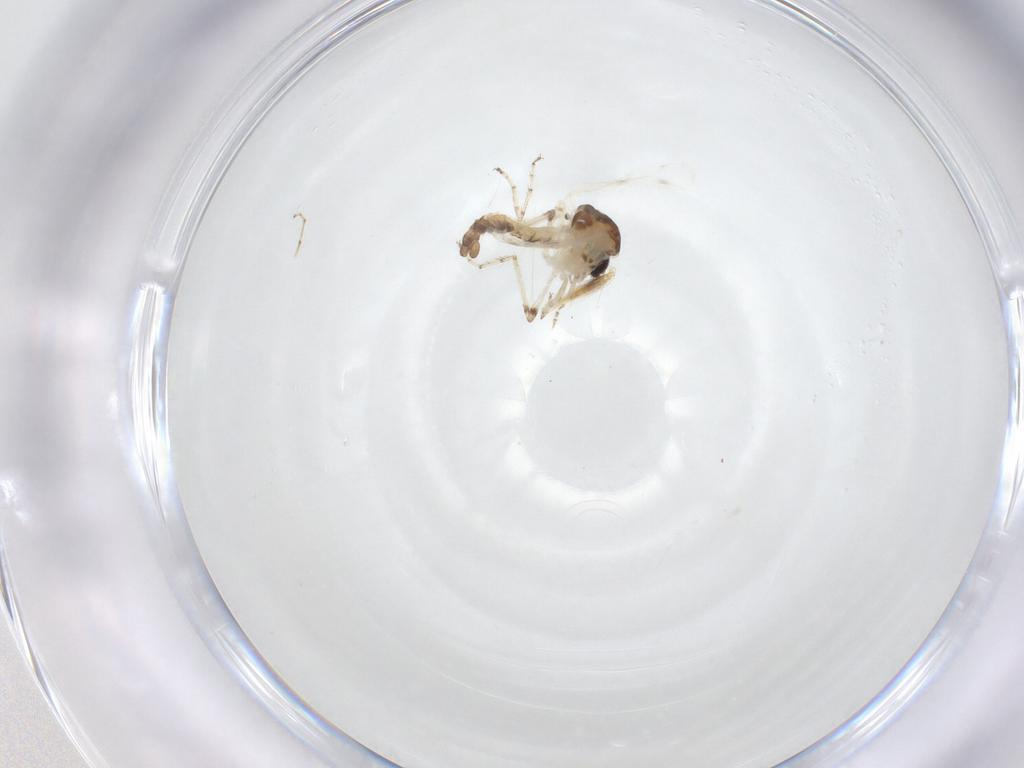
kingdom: Animalia
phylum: Arthropoda
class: Insecta
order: Diptera
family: Ceratopogonidae
